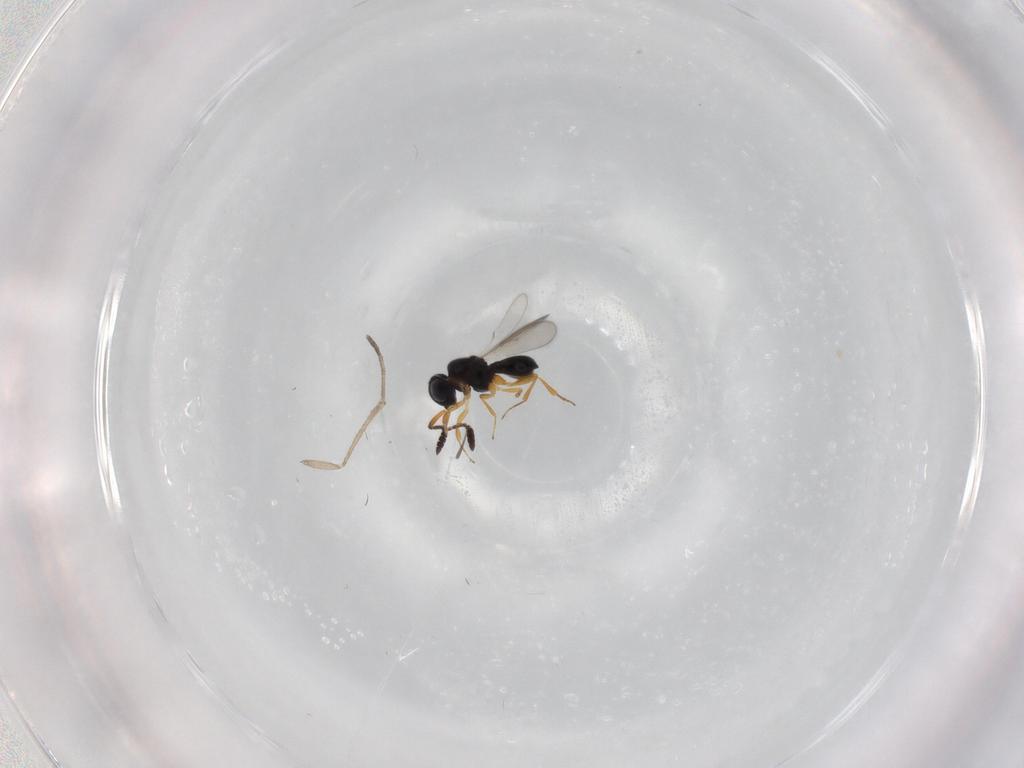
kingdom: Animalia
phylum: Arthropoda
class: Insecta
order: Hymenoptera
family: Scelionidae
